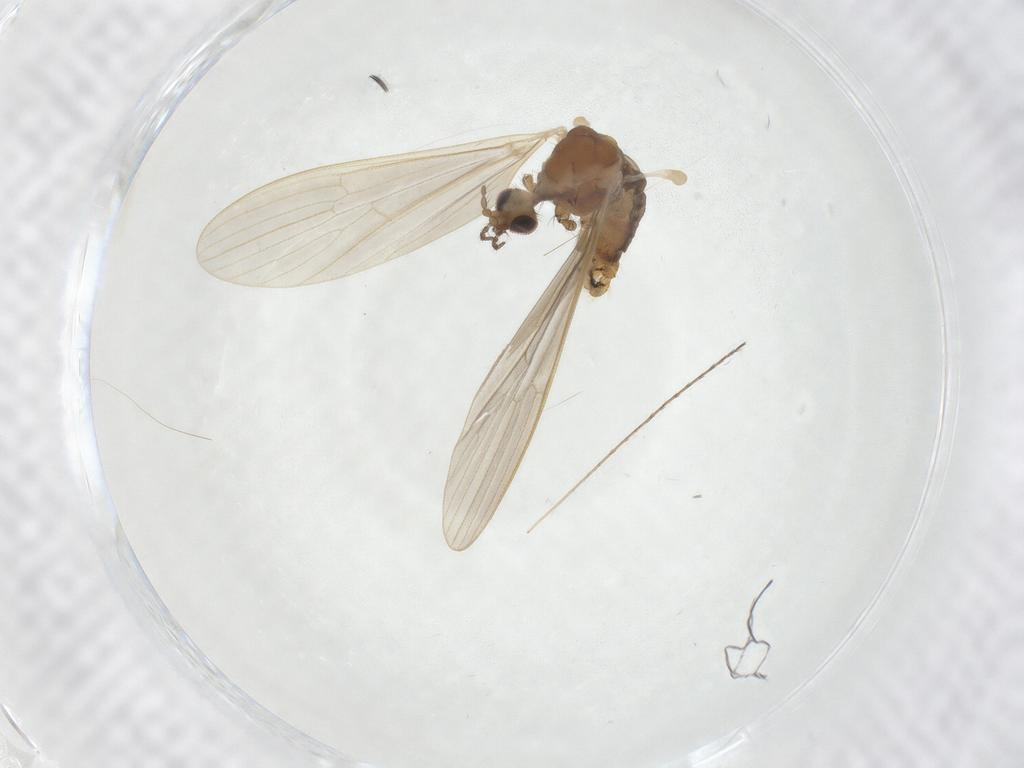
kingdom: Animalia
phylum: Arthropoda
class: Insecta
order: Diptera
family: Limoniidae
